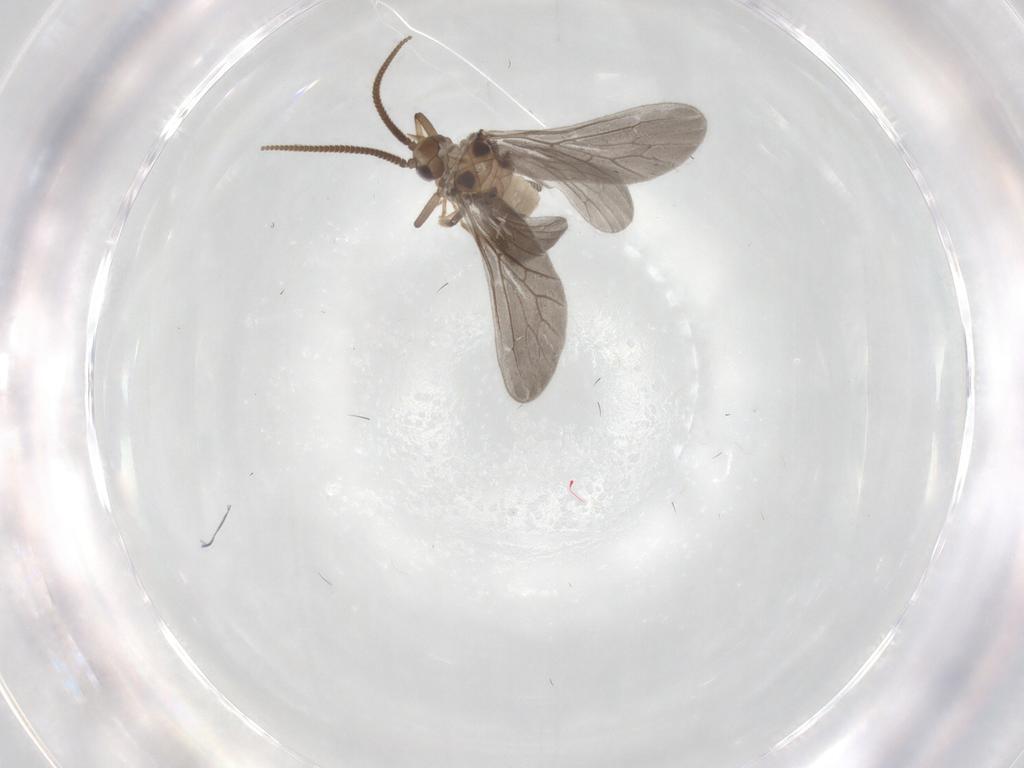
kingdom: Animalia
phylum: Arthropoda
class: Insecta
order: Neuroptera
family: Coniopterygidae
